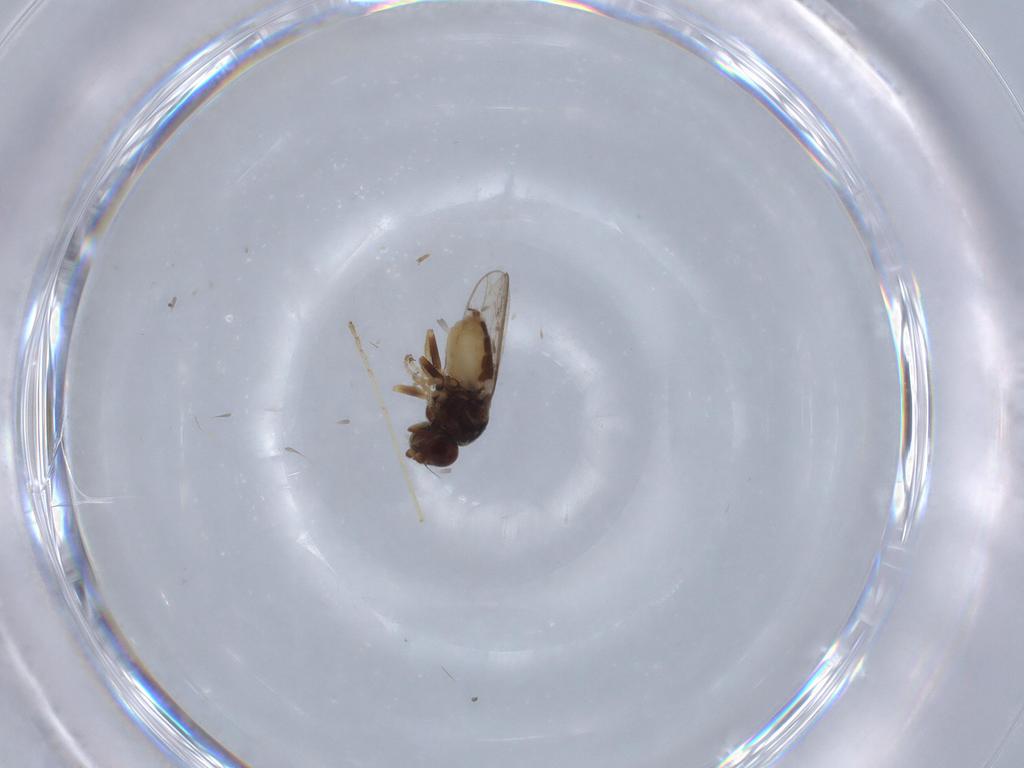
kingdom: Animalia
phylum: Arthropoda
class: Insecta
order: Diptera
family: Chloropidae
